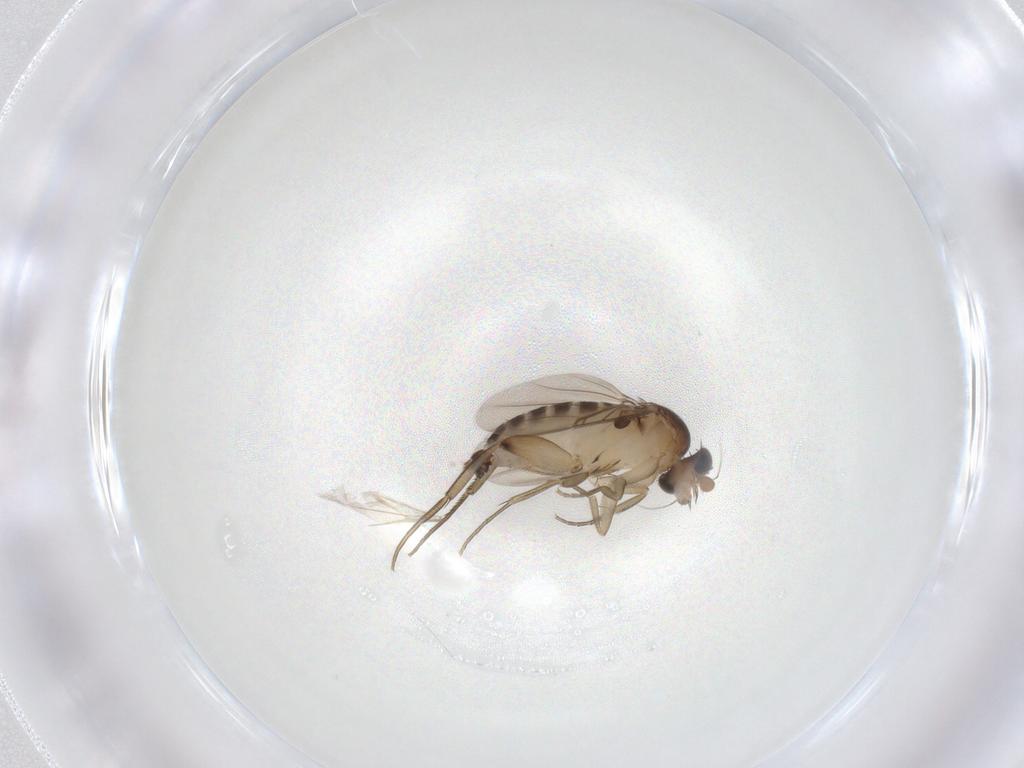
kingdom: Animalia
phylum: Arthropoda
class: Insecta
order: Diptera
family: Phoridae
